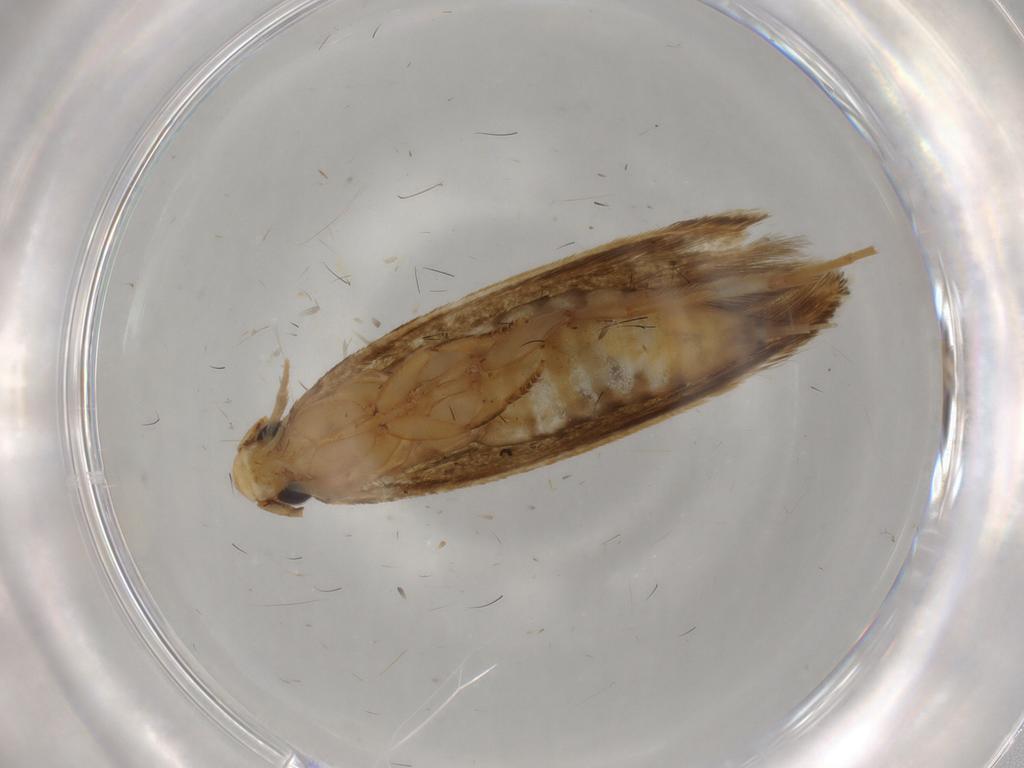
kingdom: Animalia
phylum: Arthropoda
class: Insecta
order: Lepidoptera
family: Tineidae
